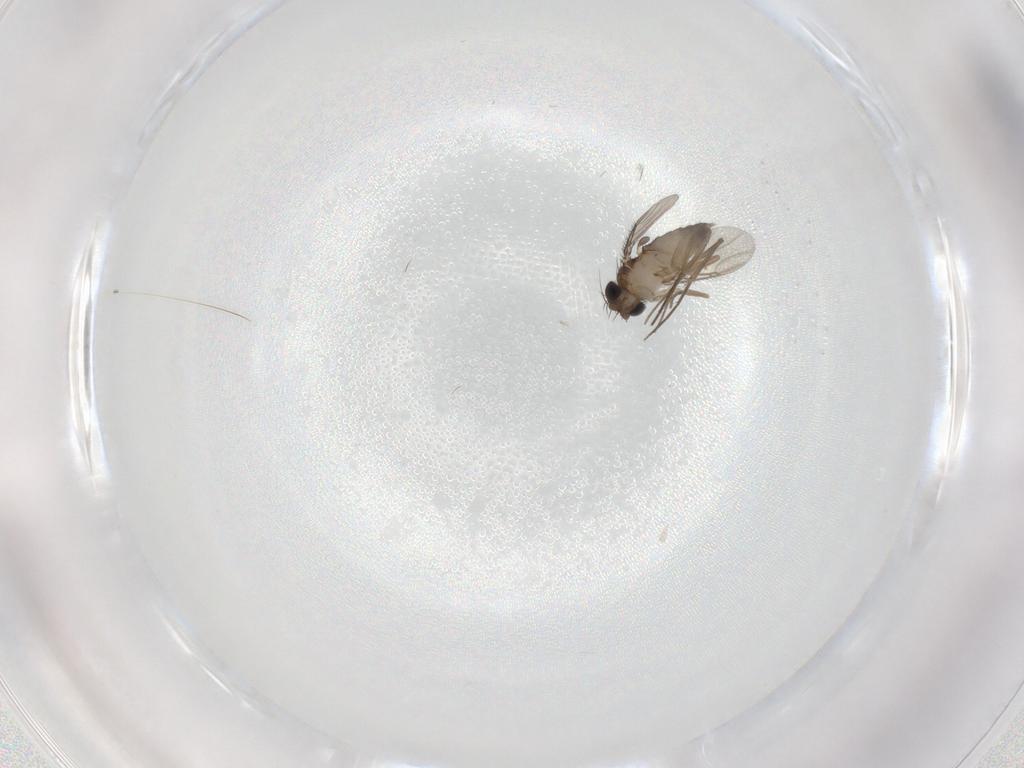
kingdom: Animalia
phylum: Arthropoda
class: Insecta
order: Diptera
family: Phoridae
